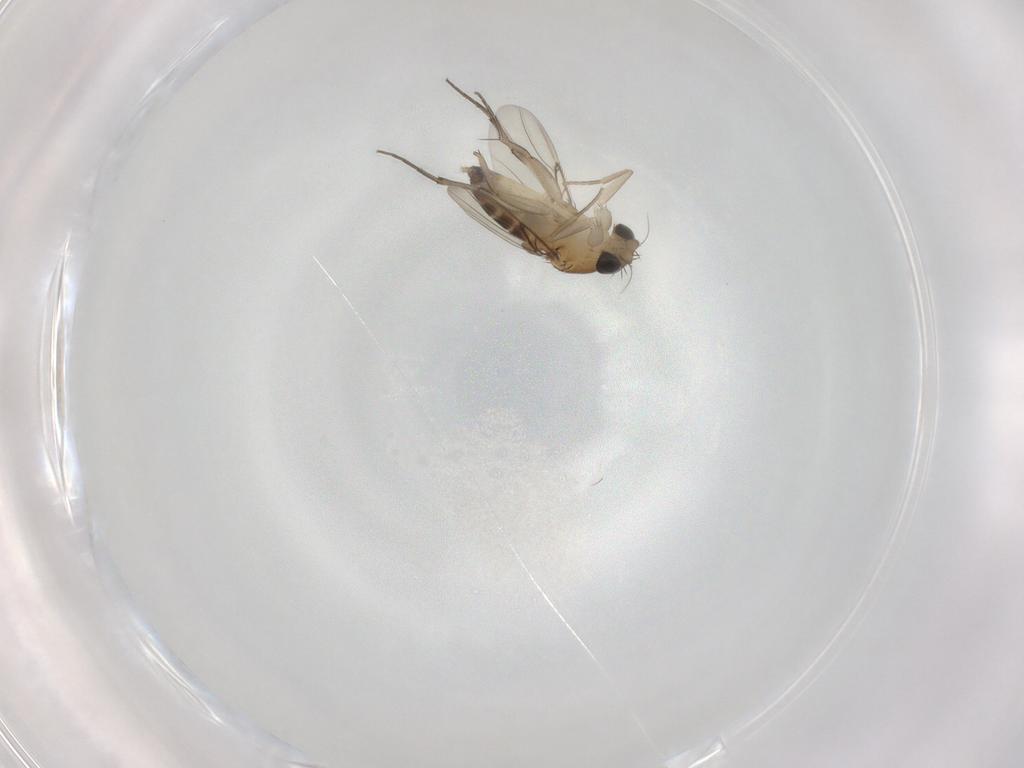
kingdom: Animalia
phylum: Arthropoda
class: Insecta
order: Diptera
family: Phoridae
